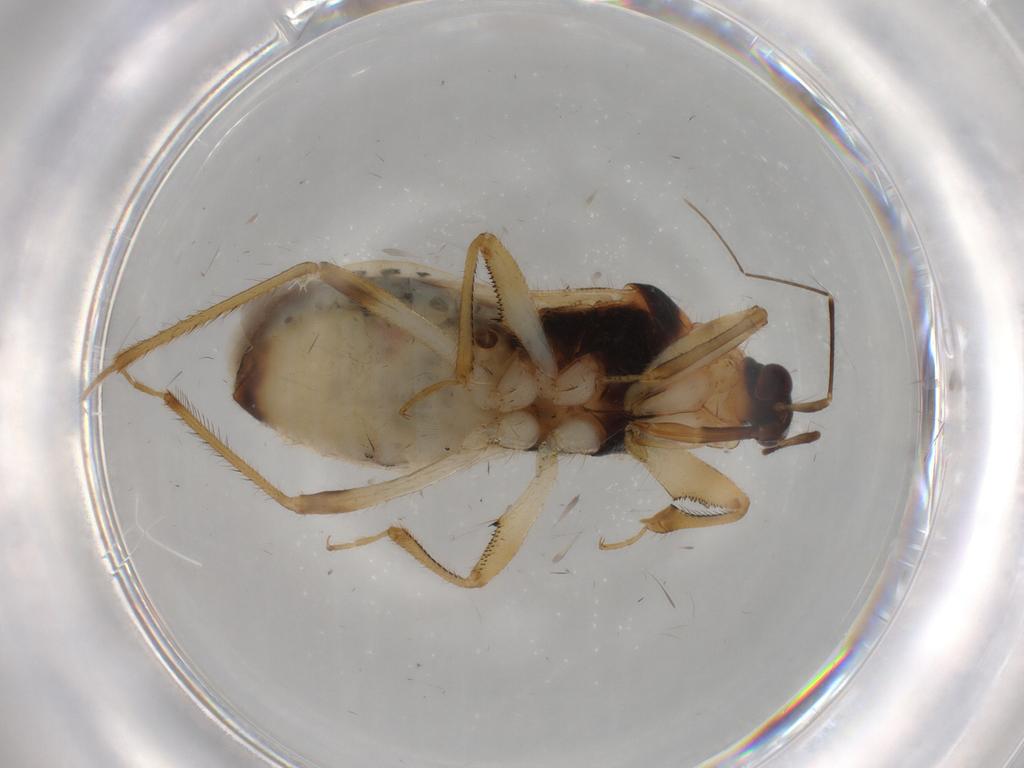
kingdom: Animalia
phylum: Arthropoda
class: Insecta
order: Hemiptera
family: Nabidae
